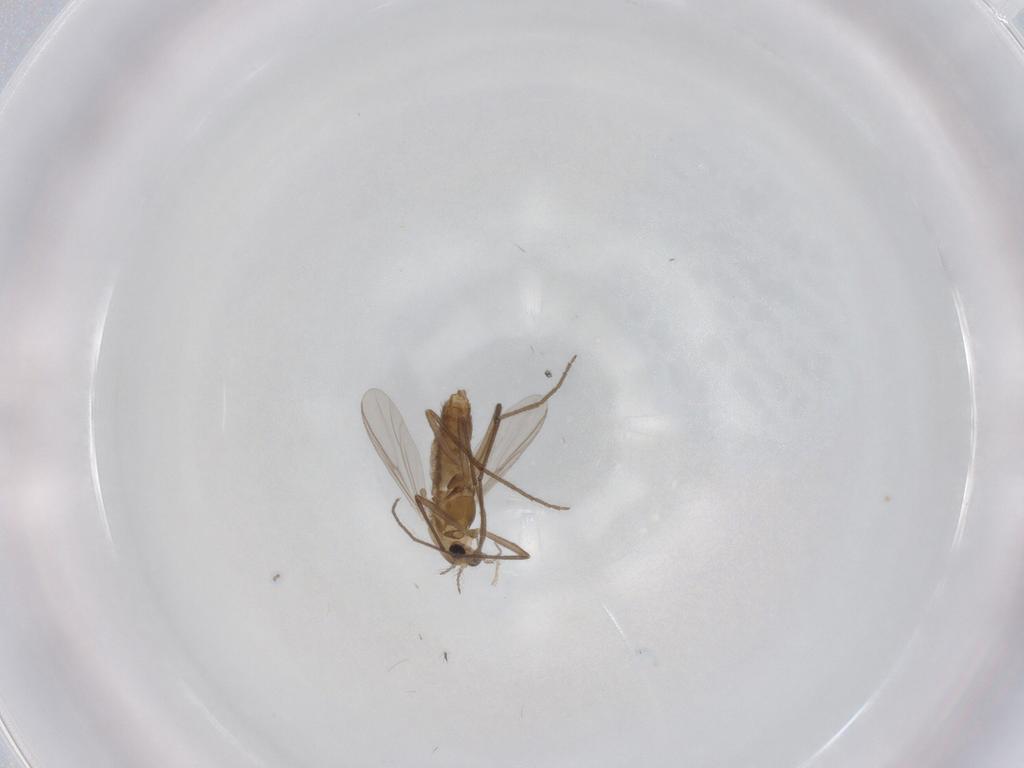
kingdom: Animalia
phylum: Arthropoda
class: Insecta
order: Diptera
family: Chironomidae
